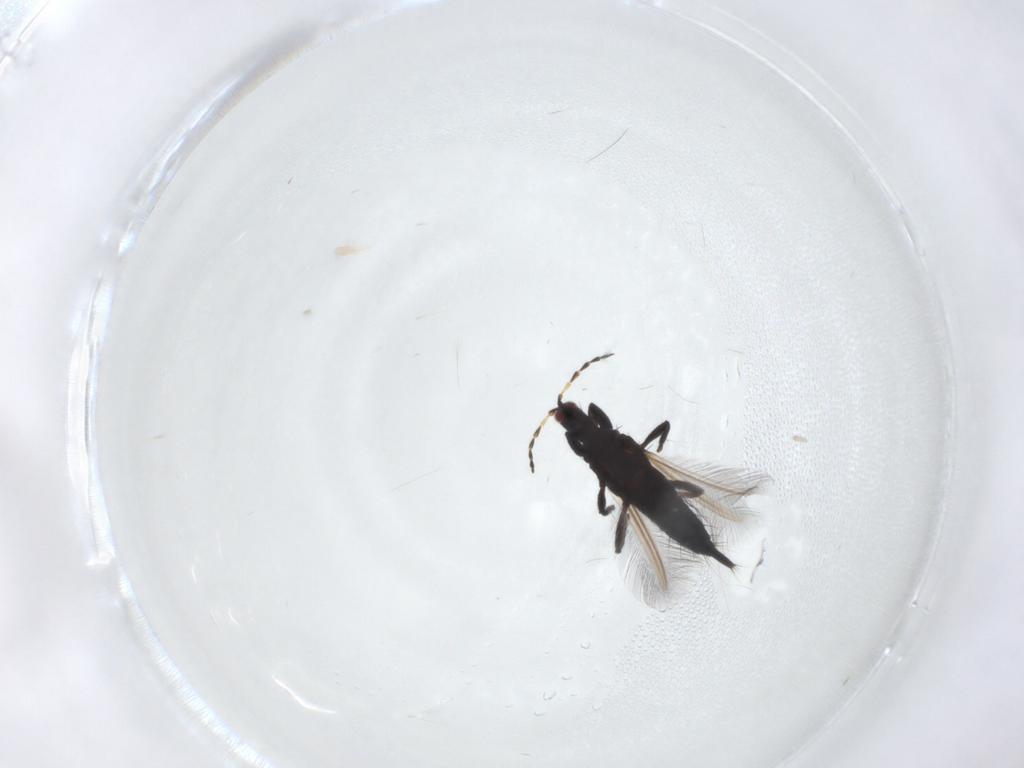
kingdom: Animalia
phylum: Arthropoda
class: Insecta
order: Thysanoptera
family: Phlaeothripidae
